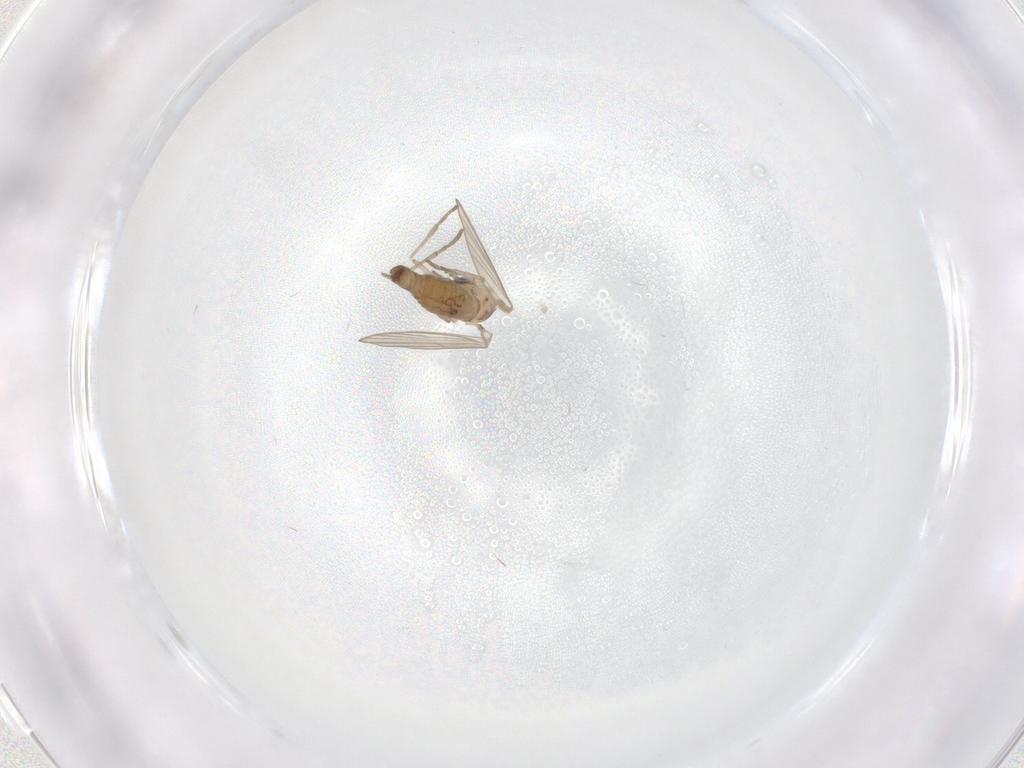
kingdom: Animalia
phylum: Arthropoda
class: Insecta
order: Diptera
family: Psychodidae
